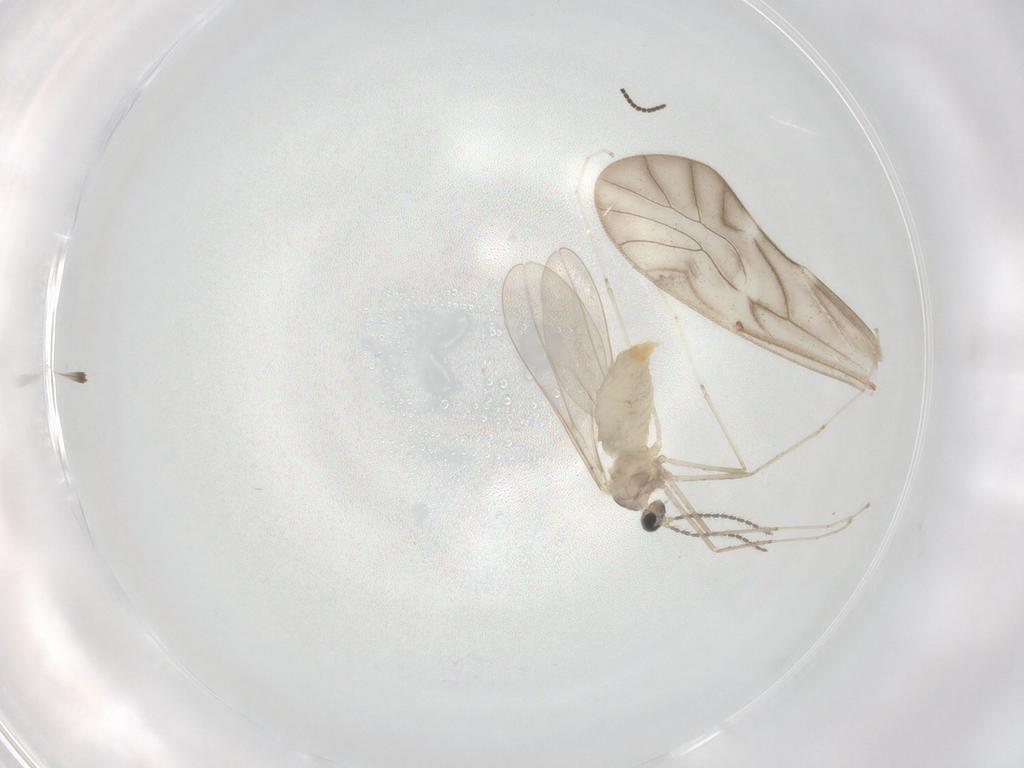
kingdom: Animalia
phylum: Arthropoda
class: Insecta
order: Diptera
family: Cecidomyiidae
